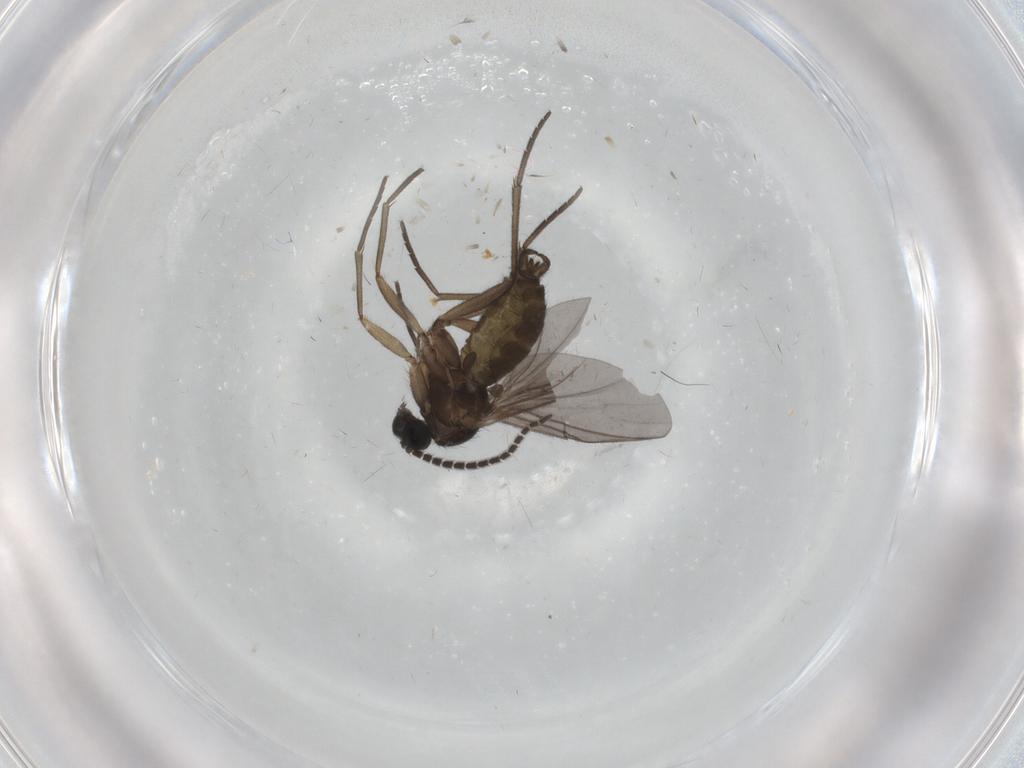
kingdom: Animalia
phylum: Arthropoda
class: Insecta
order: Diptera
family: Sciaridae
